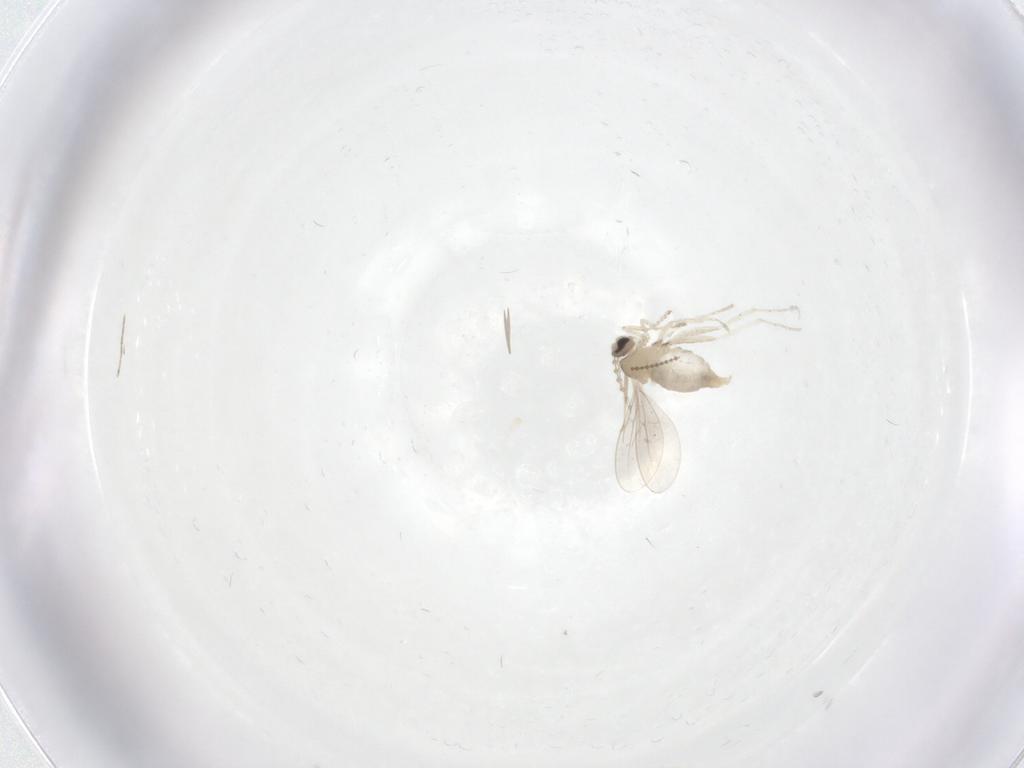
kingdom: Animalia
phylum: Arthropoda
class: Insecta
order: Diptera
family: Cecidomyiidae
